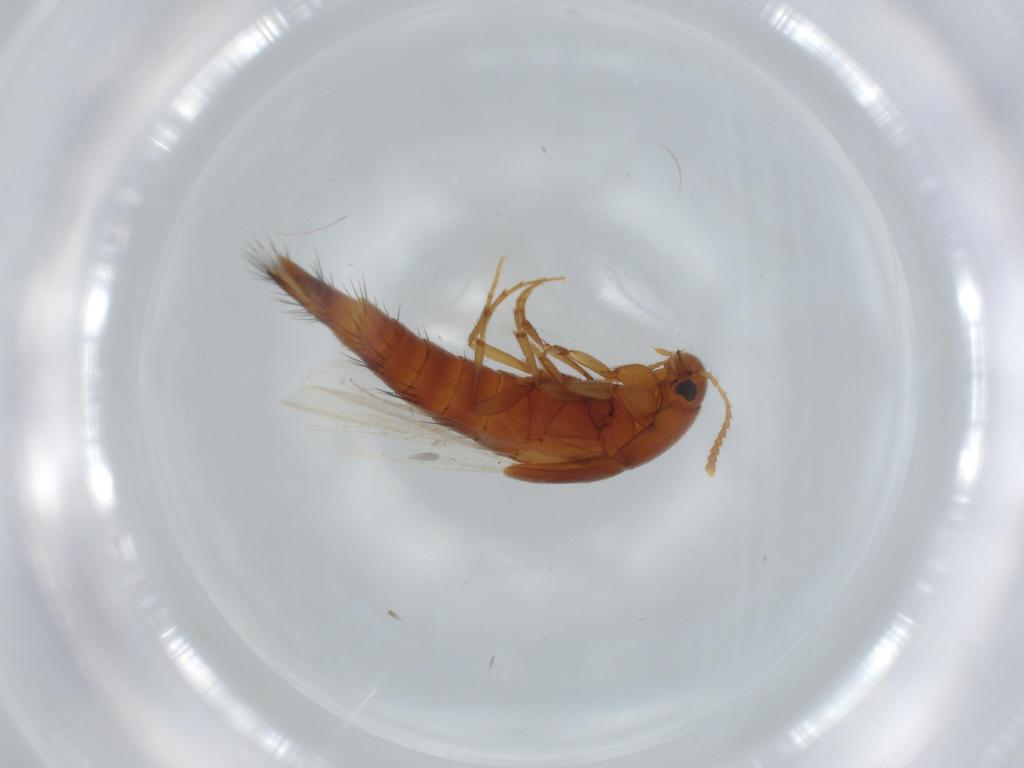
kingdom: Animalia
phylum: Arthropoda
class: Insecta
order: Coleoptera
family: Staphylinidae
